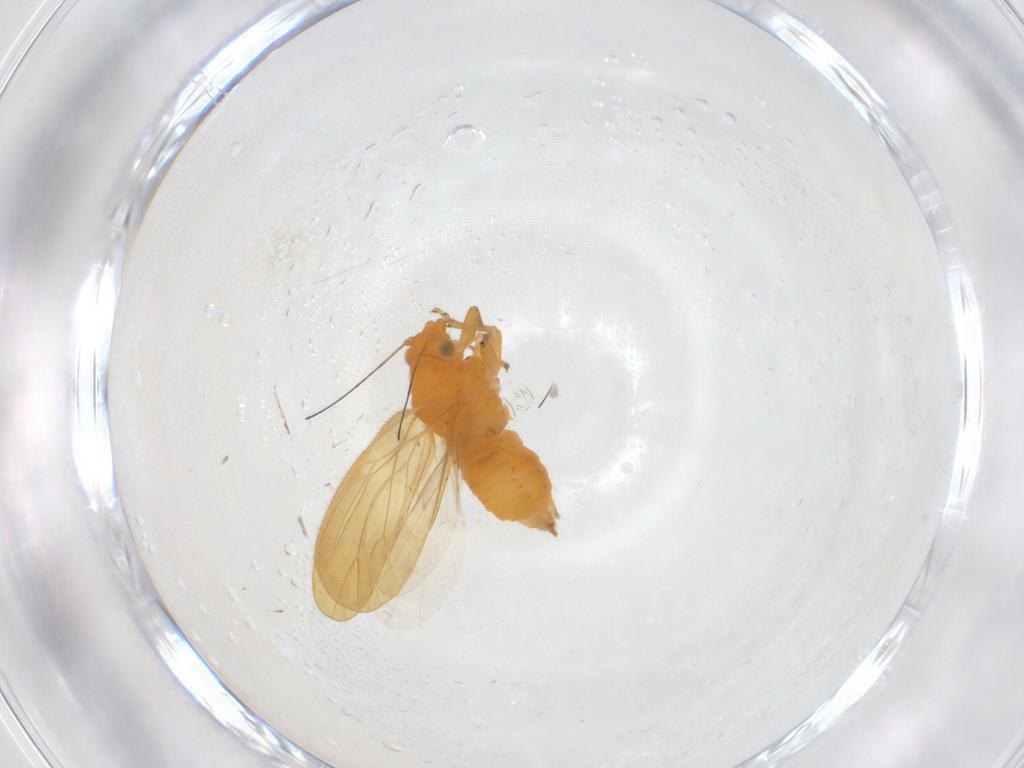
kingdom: Animalia
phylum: Arthropoda
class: Insecta
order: Hemiptera
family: Psyllidae
